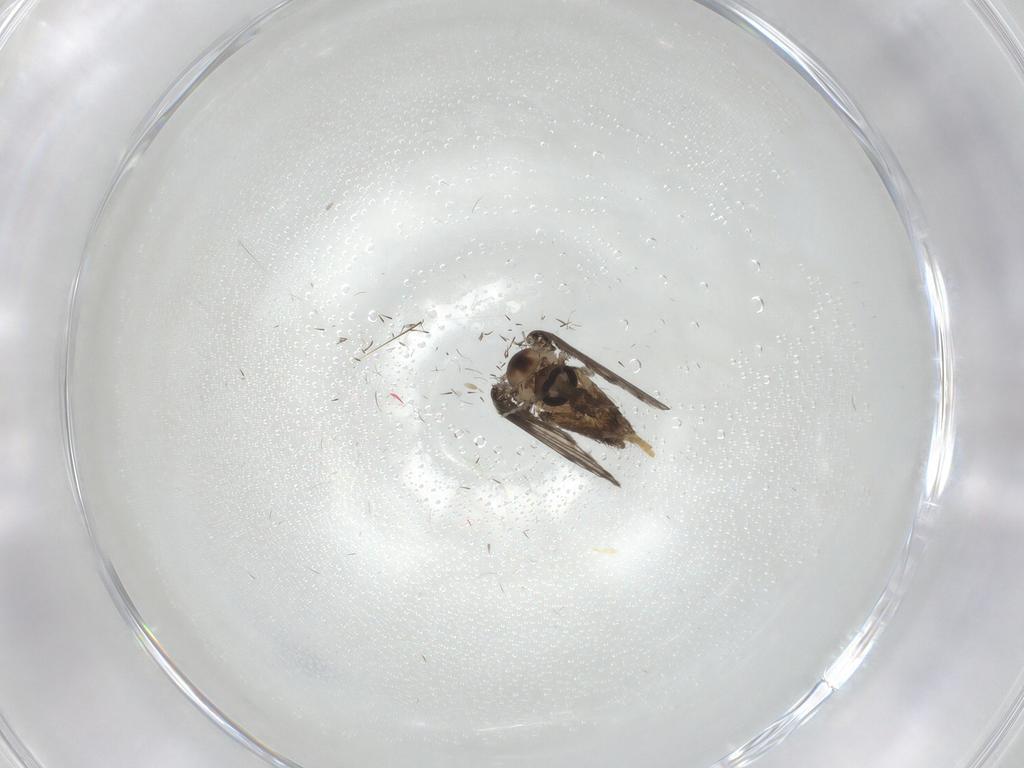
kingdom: Animalia
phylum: Arthropoda
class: Insecta
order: Diptera
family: Psychodidae
